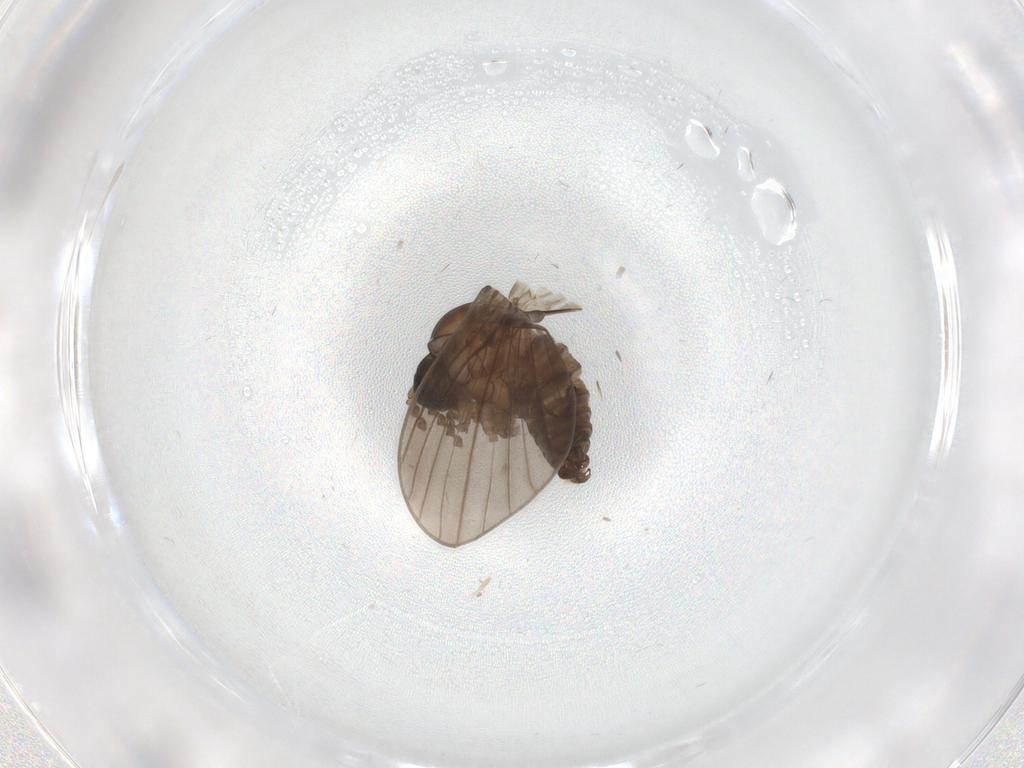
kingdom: Animalia
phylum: Arthropoda
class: Insecta
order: Diptera
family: Psychodidae
